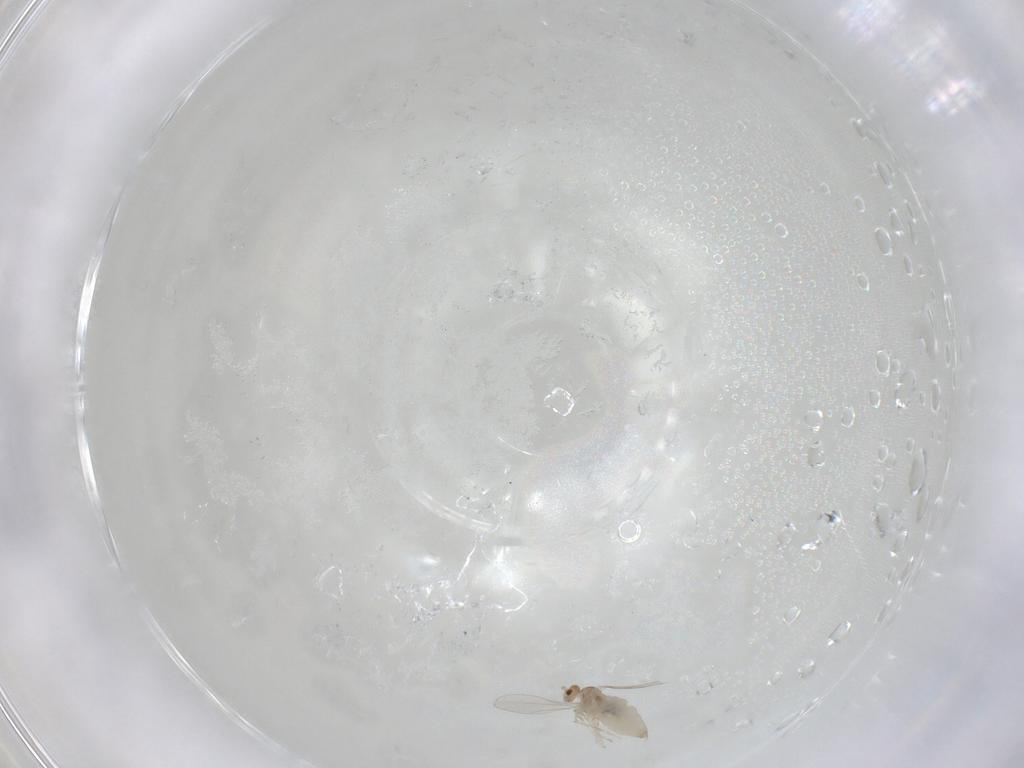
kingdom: Animalia
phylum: Arthropoda
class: Insecta
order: Diptera
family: Cecidomyiidae
